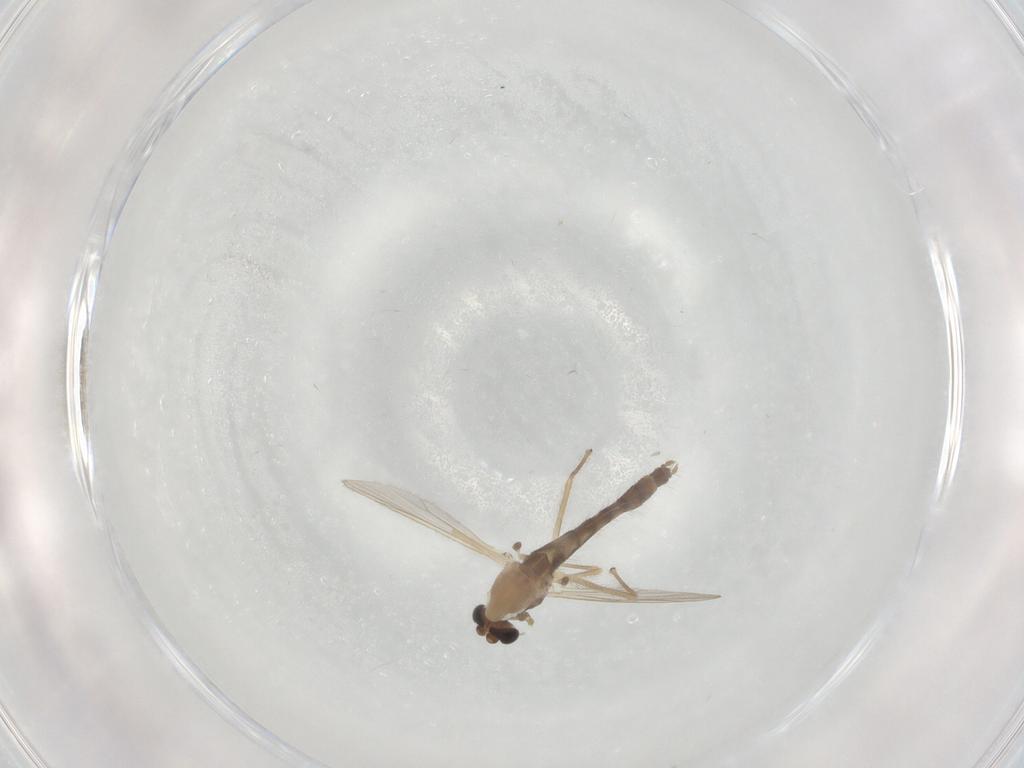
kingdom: Animalia
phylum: Arthropoda
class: Insecta
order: Diptera
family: Chironomidae
